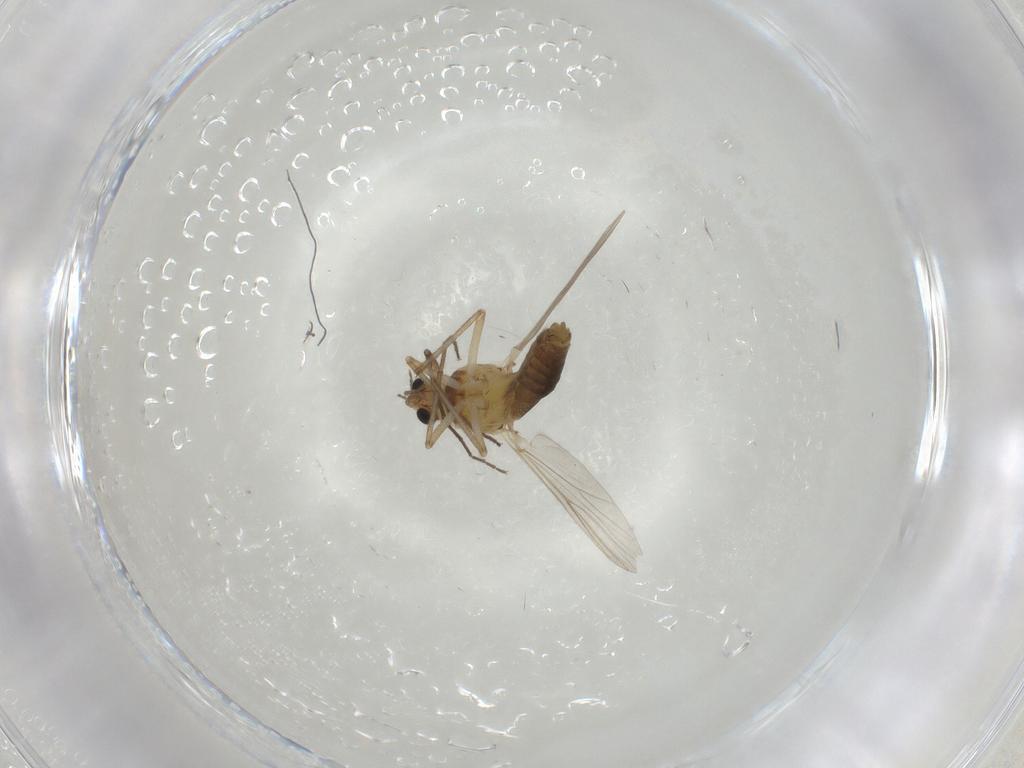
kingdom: Animalia
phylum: Arthropoda
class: Insecta
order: Diptera
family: Chironomidae
